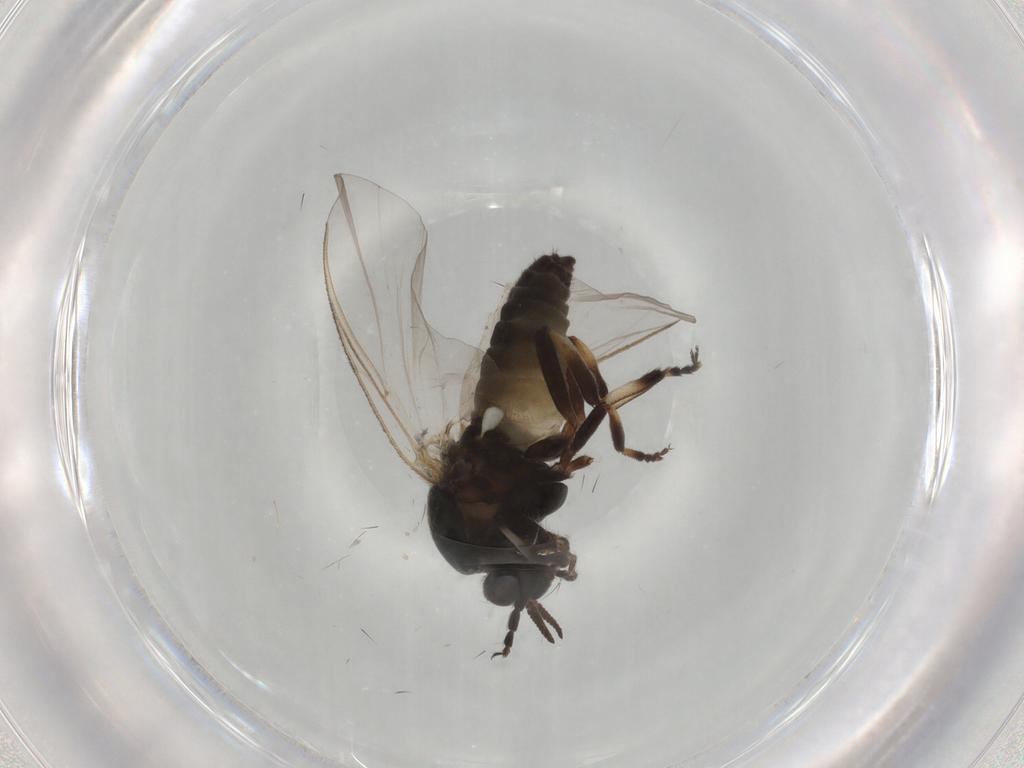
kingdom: Animalia
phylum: Arthropoda
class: Insecta
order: Diptera
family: Simuliidae
